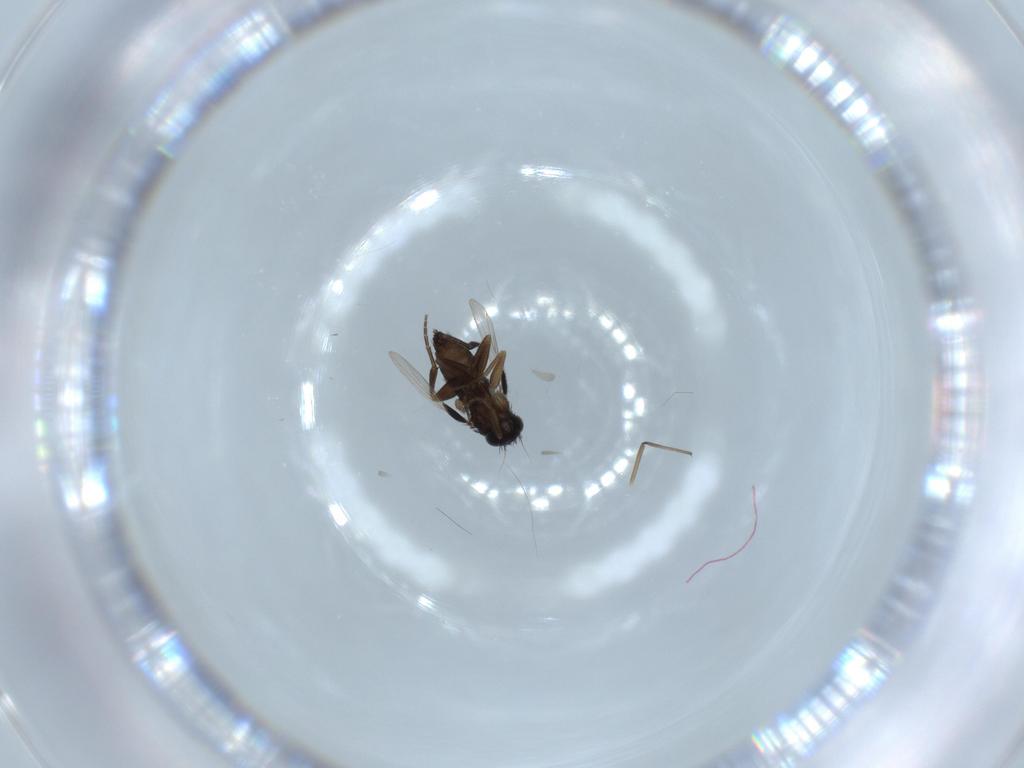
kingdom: Animalia
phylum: Arthropoda
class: Insecta
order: Diptera
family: Phoridae
